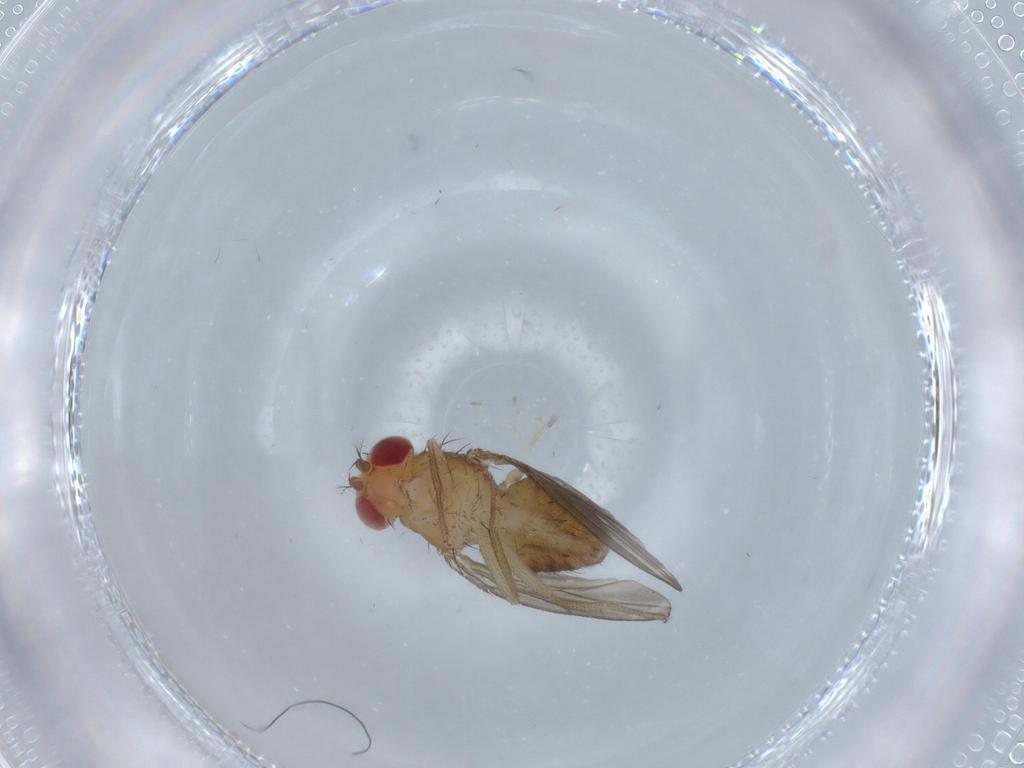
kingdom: Animalia
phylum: Arthropoda
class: Insecta
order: Diptera
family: Drosophilidae
